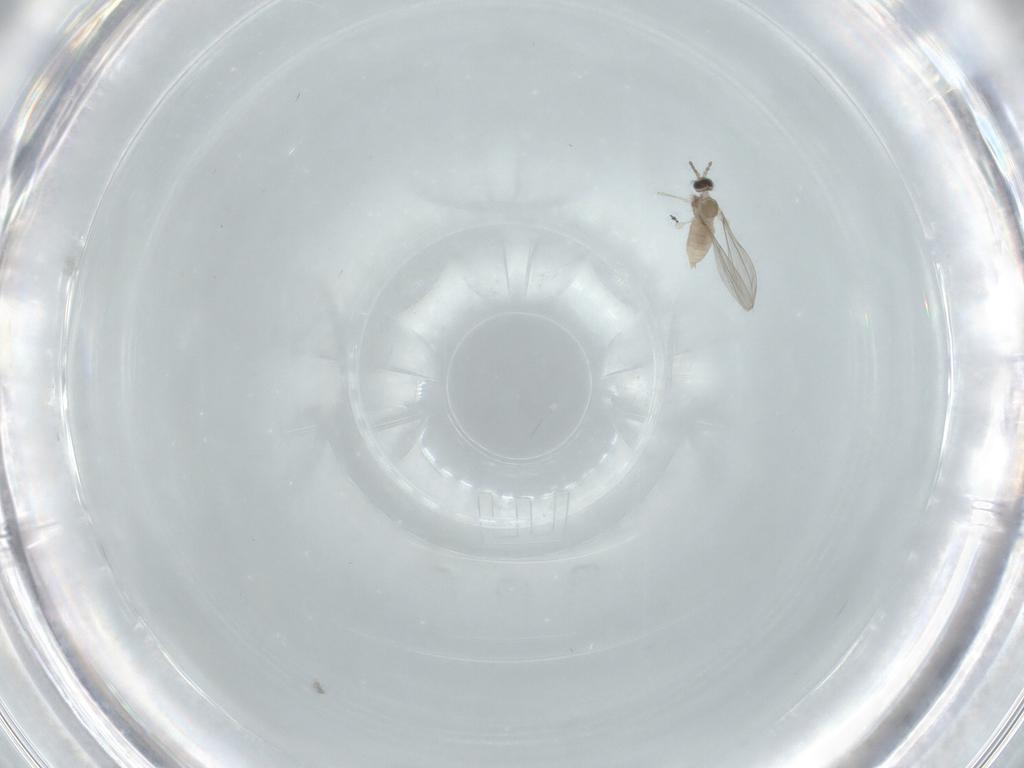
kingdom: Animalia
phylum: Arthropoda
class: Insecta
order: Diptera
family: Cecidomyiidae
